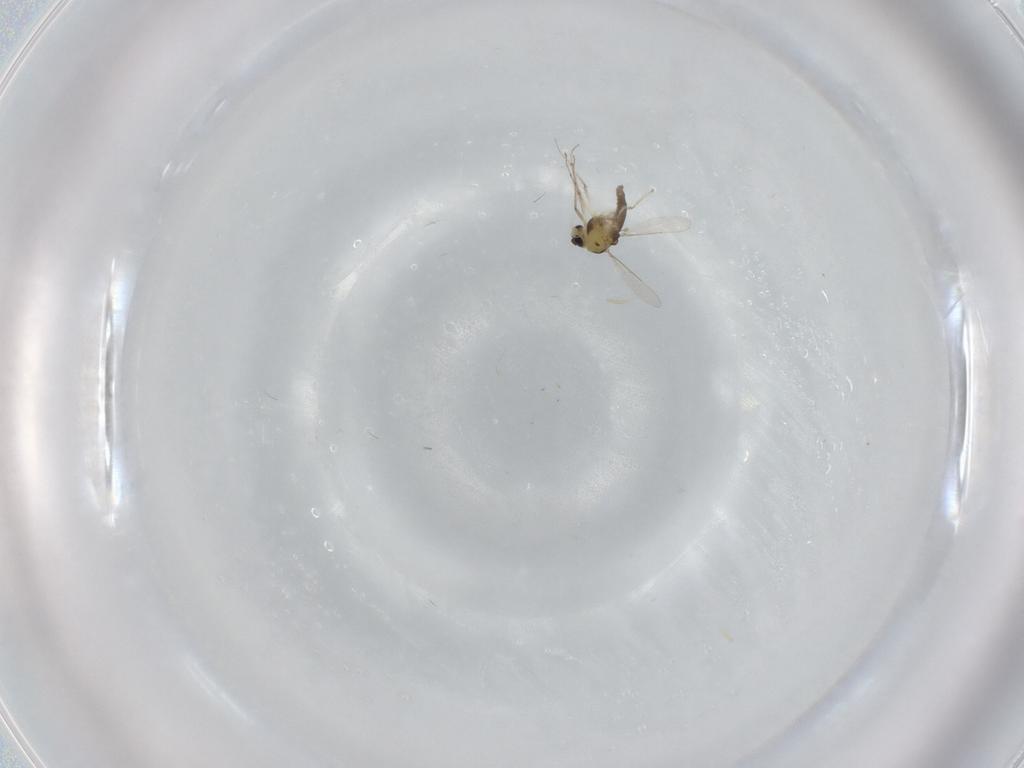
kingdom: Animalia
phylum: Arthropoda
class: Insecta
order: Diptera
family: Chironomidae
